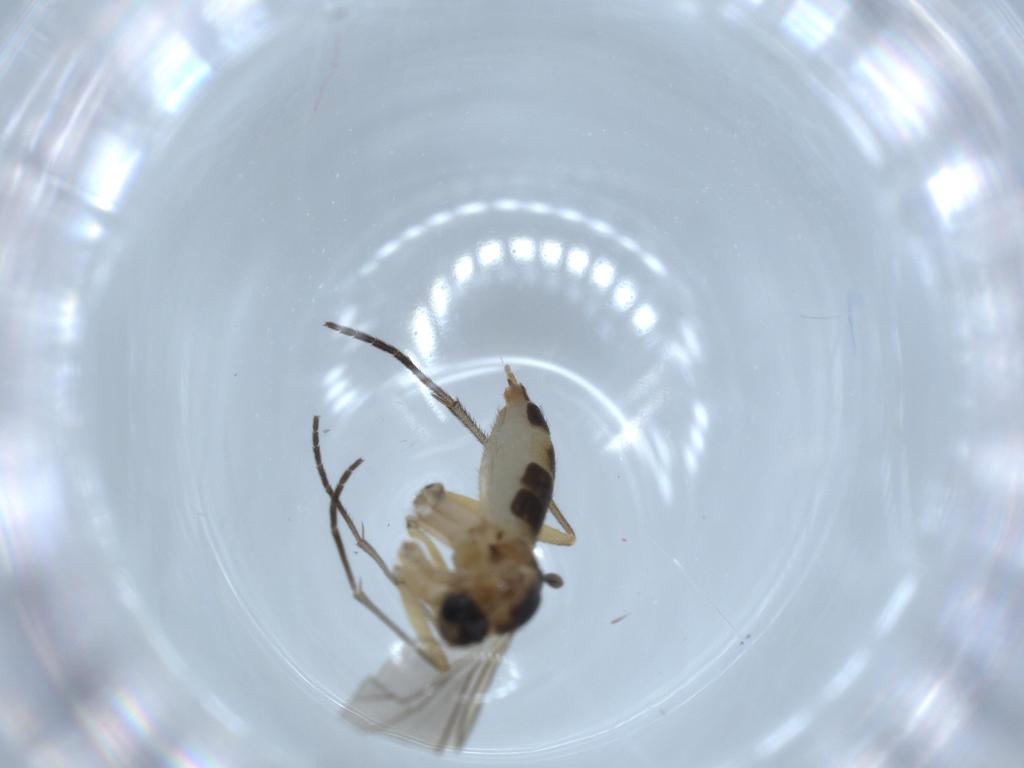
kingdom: Animalia
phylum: Arthropoda
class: Insecta
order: Diptera
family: Sciaridae
